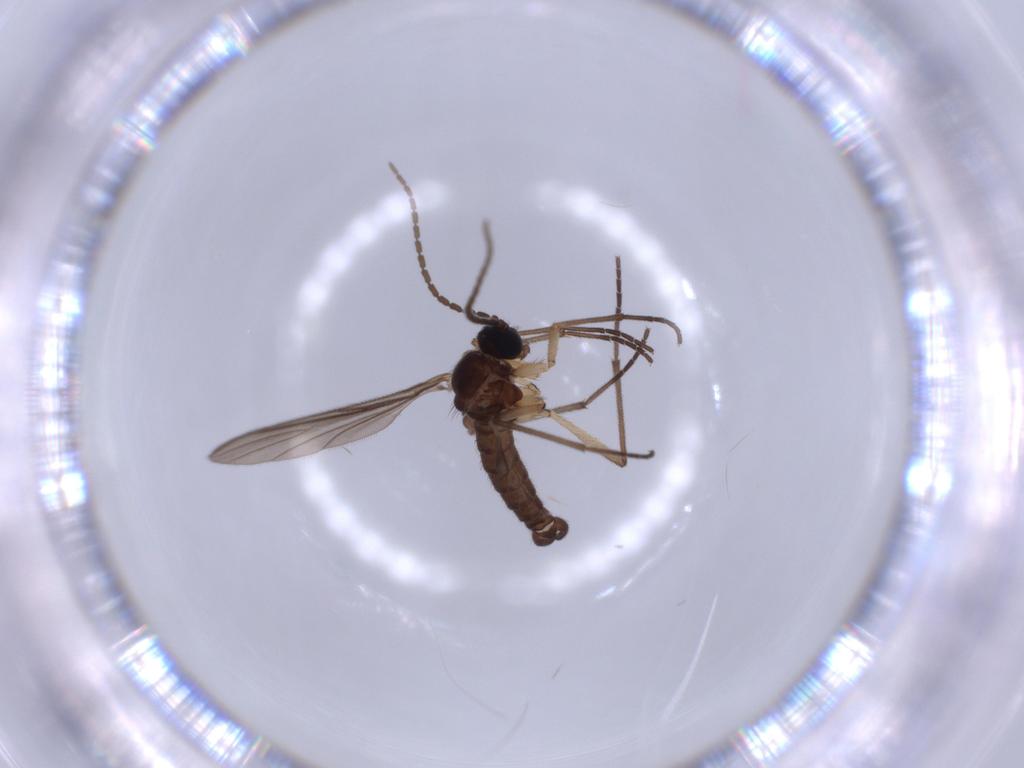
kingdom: Animalia
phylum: Arthropoda
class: Insecta
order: Diptera
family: Sciaridae
